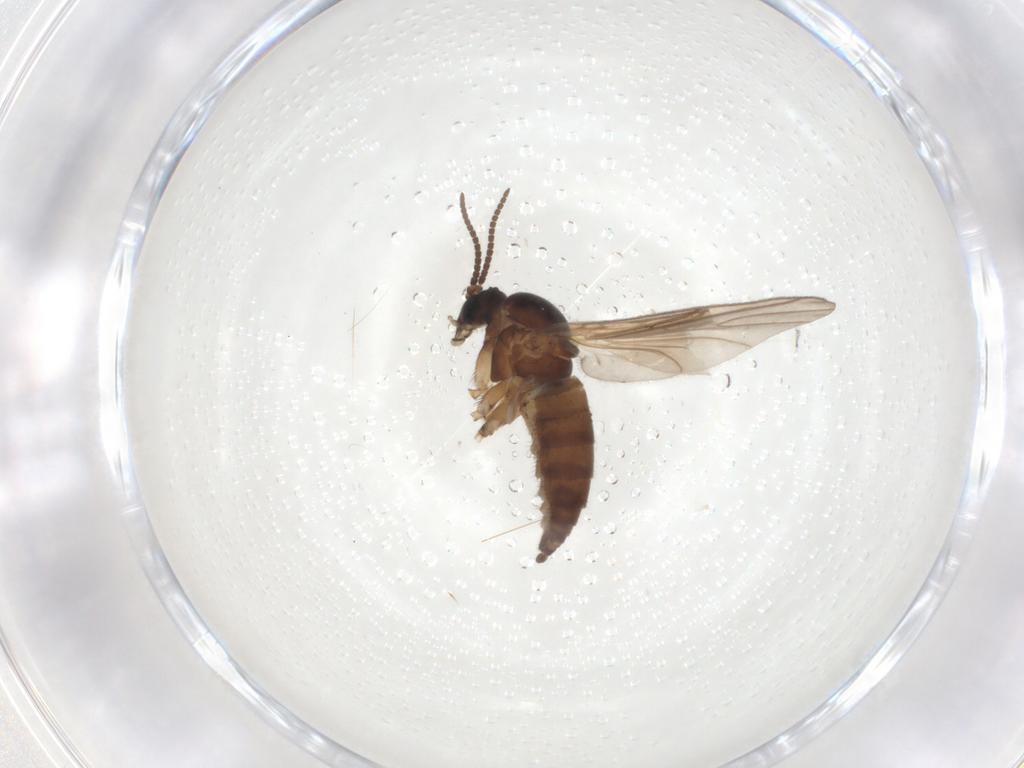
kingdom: Animalia
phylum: Arthropoda
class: Insecta
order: Diptera
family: Sciaridae
